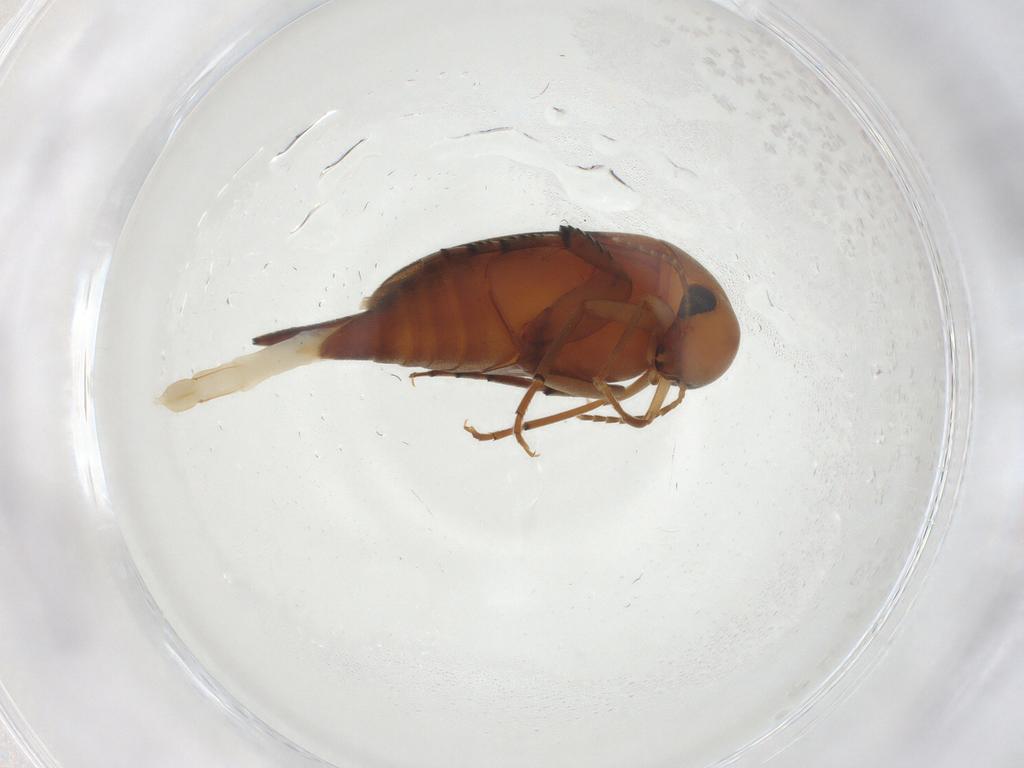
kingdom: Animalia
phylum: Arthropoda
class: Insecta
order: Coleoptera
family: Mordellidae
